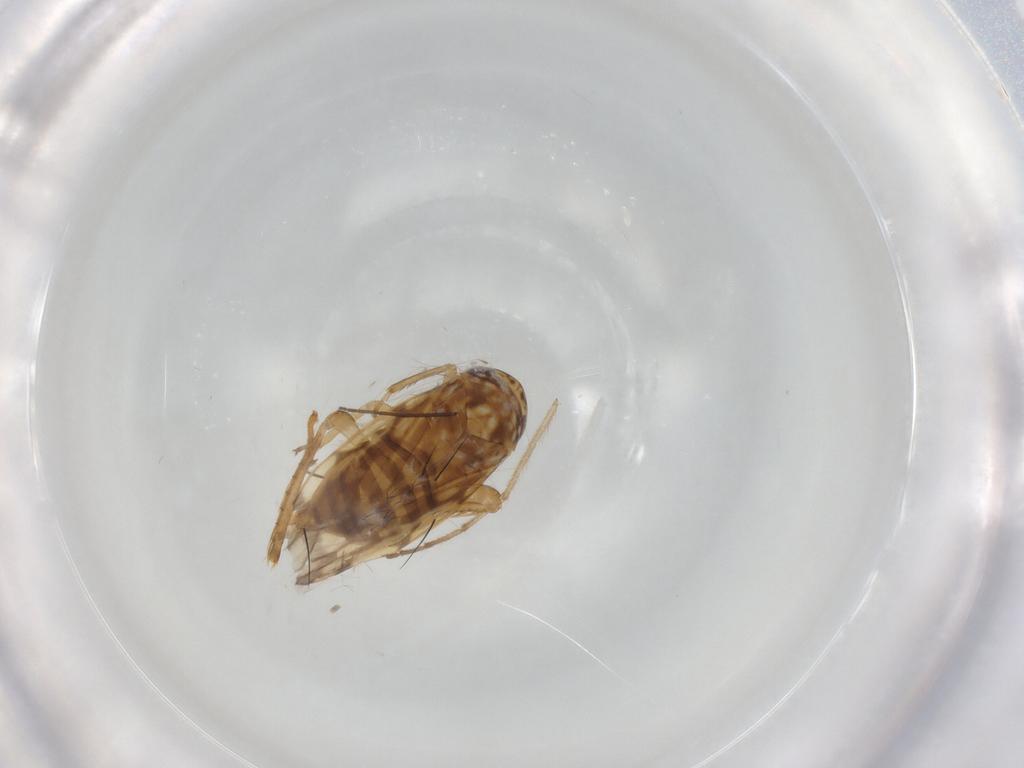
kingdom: Animalia
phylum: Arthropoda
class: Insecta
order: Hemiptera
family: Cicadellidae
